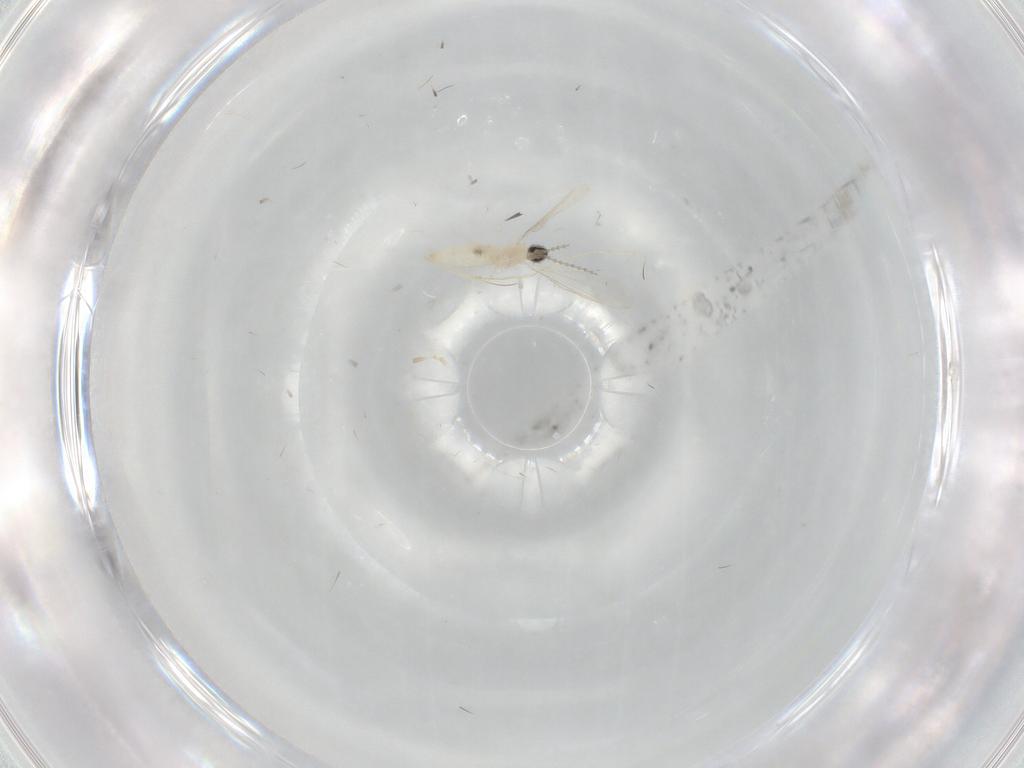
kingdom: Animalia
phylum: Arthropoda
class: Insecta
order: Diptera
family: Cecidomyiidae
